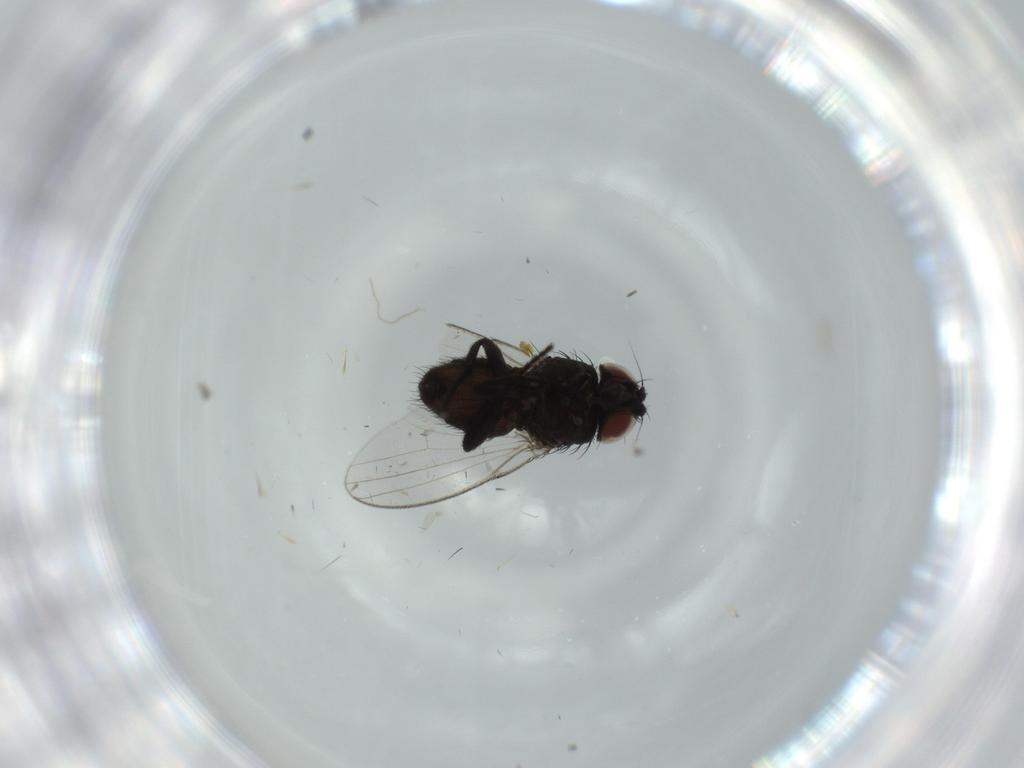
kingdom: Animalia
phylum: Arthropoda
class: Insecta
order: Diptera
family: Milichiidae
